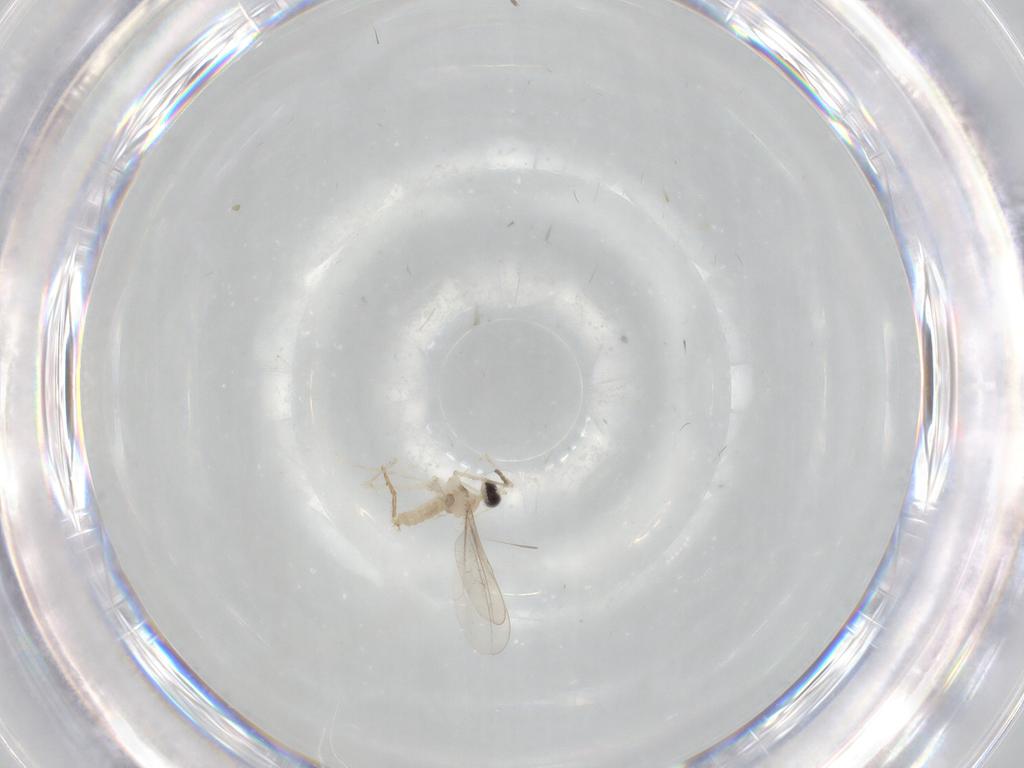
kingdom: Animalia
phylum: Arthropoda
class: Insecta
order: Diptera
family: Cecidomyiidae
